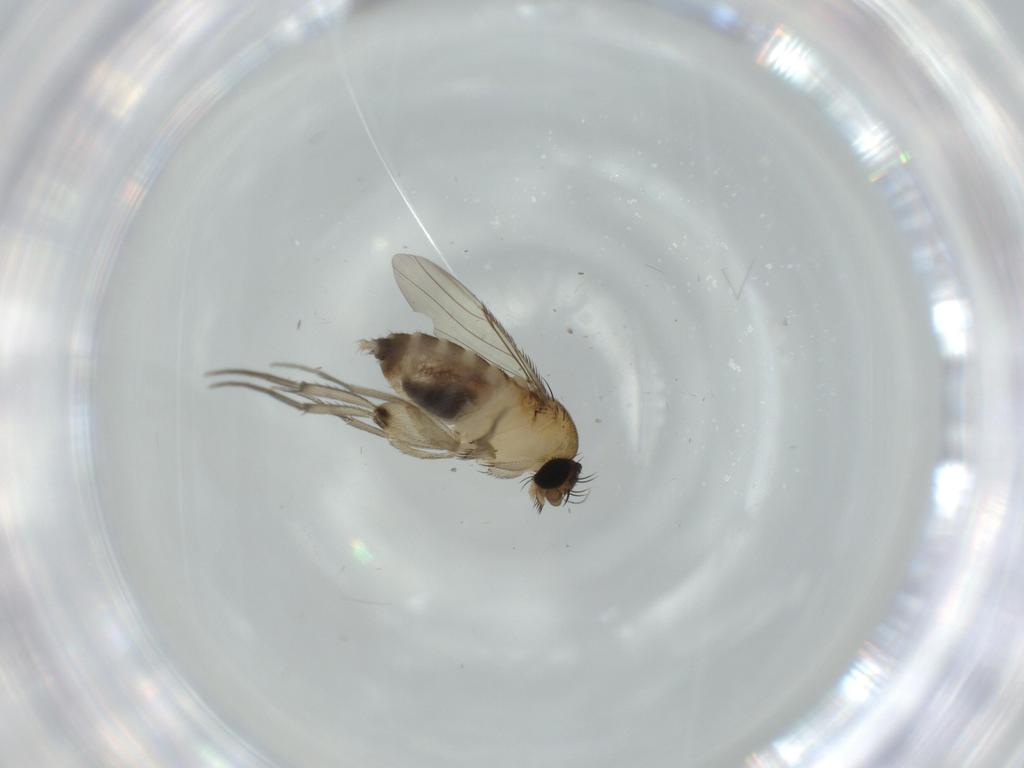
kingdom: Animalia
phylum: Arthropoda
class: Insecta
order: Diptera
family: Phoridae
